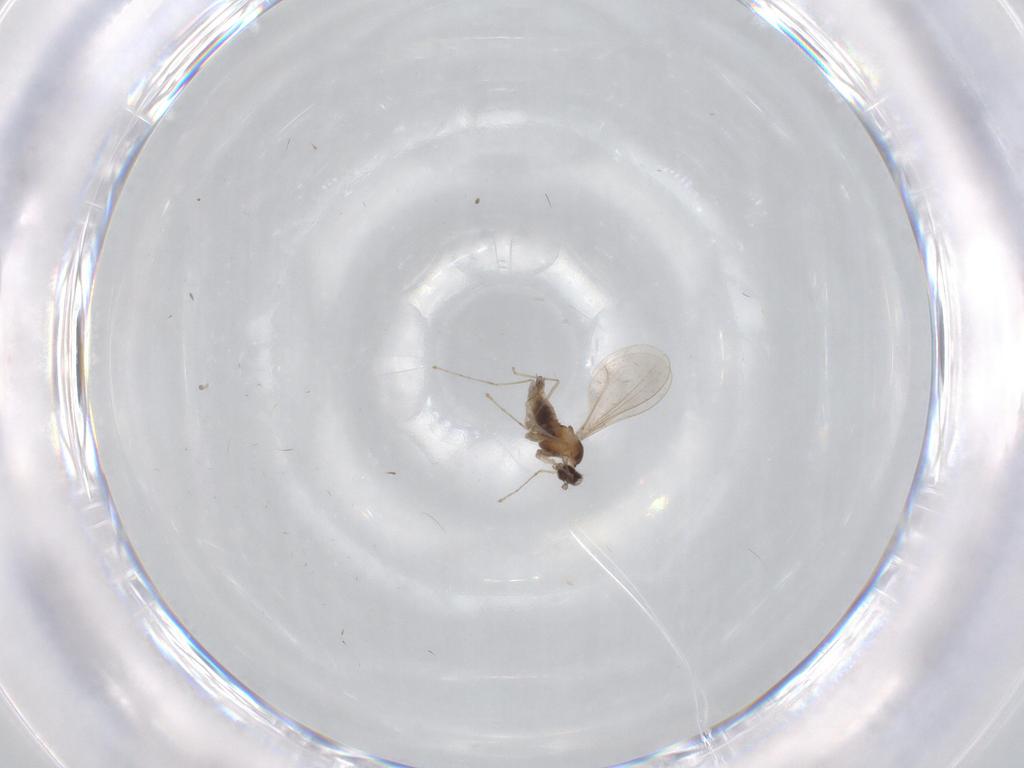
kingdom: Animalia
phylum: Arthropoda
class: Insecta
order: Diptera
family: Cecidomyiidae
